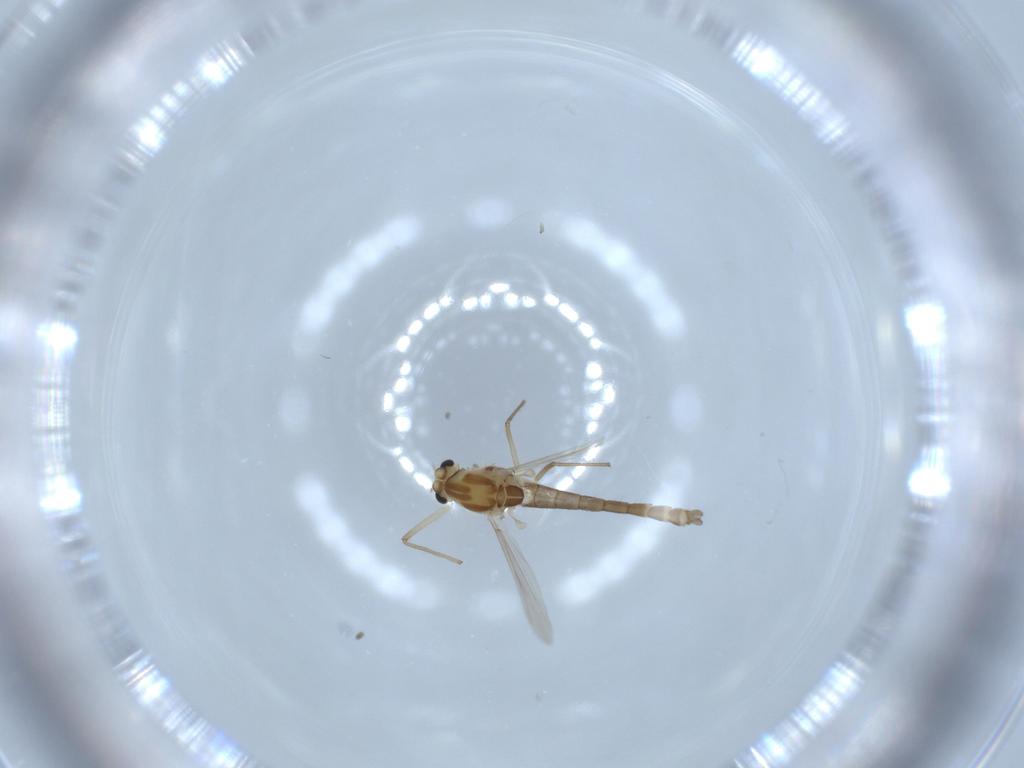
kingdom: Animalia
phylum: Arthropoda
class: Insecta
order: Diptera
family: Chironomidae
